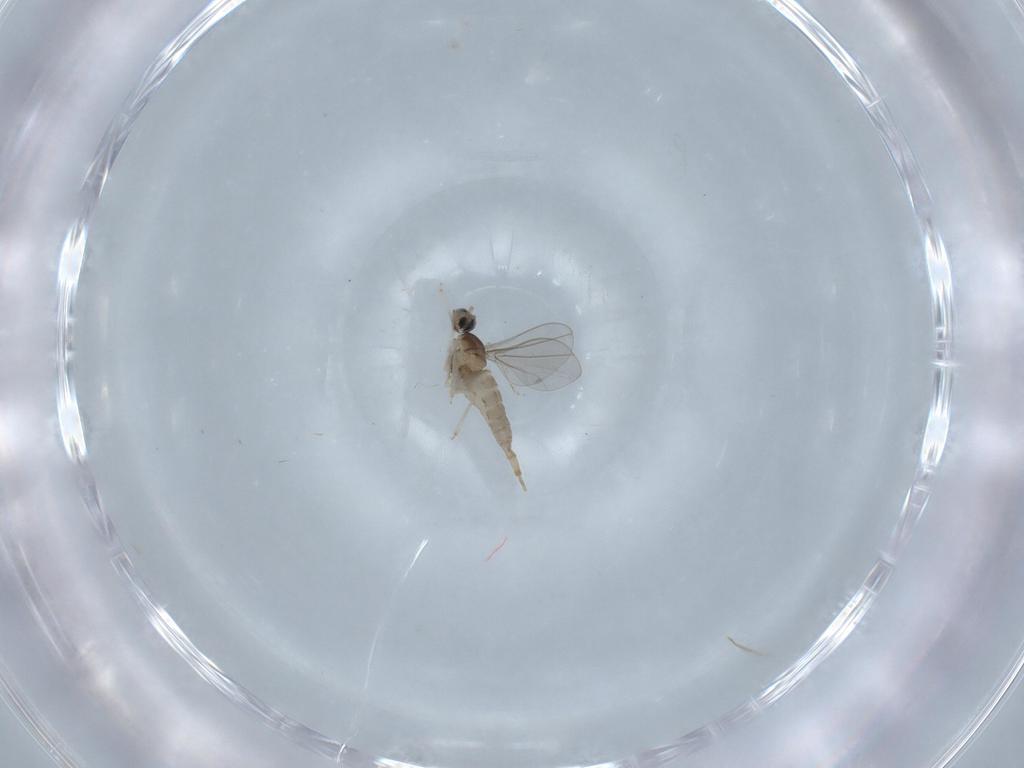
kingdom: Animalia
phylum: Arthropoda
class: Insecta
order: Diptera
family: Chironomidae
